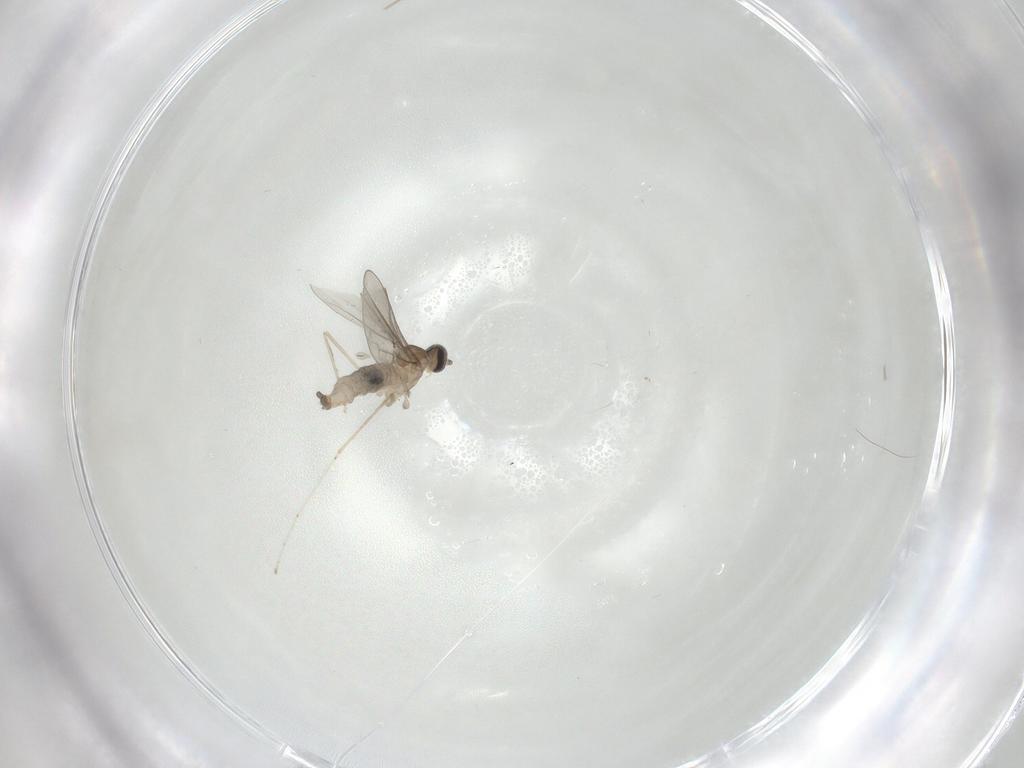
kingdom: Animalia
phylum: Arthropoda
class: Insecta
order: Diptera
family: Cecidomyiidae
